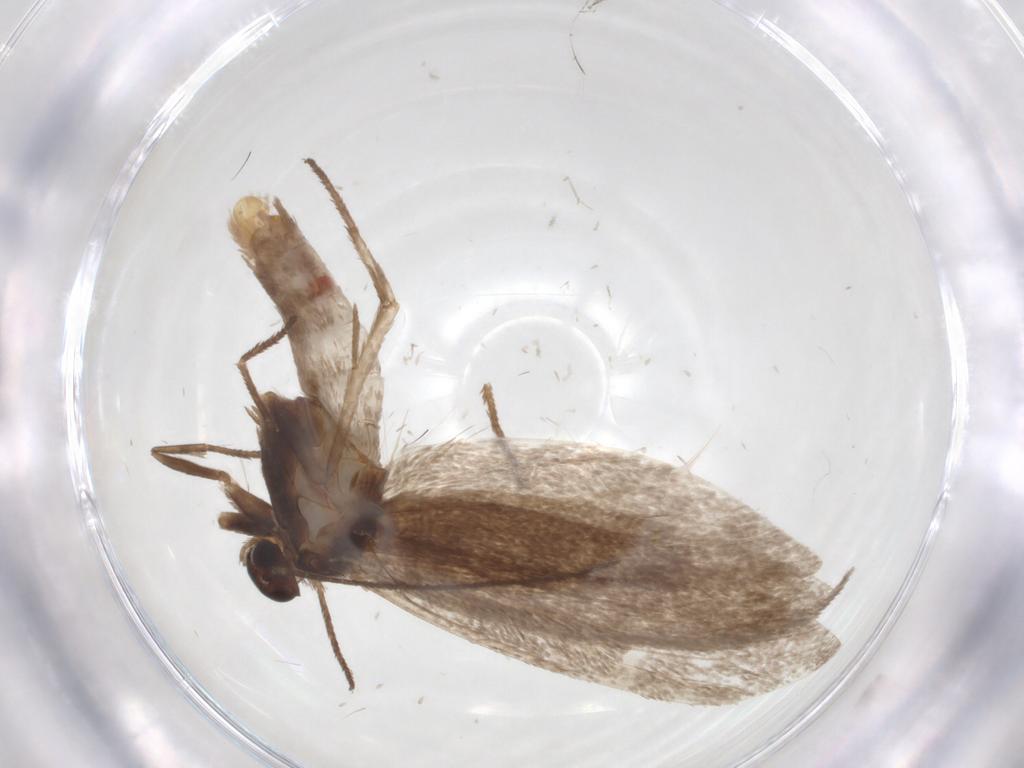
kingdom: Animalia
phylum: Arthropoda
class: Insecta
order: Lepidoptera
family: Limacodidae
